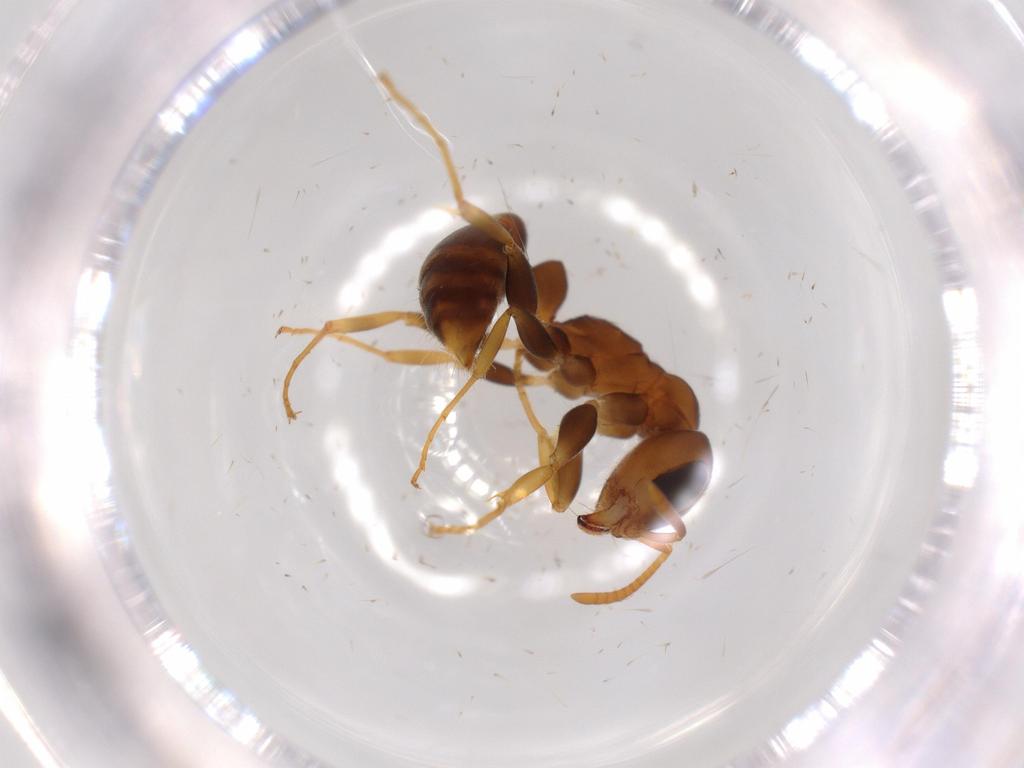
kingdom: Animalia
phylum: Arthropoda
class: Insecta
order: Hymenoptera
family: Formicidae
